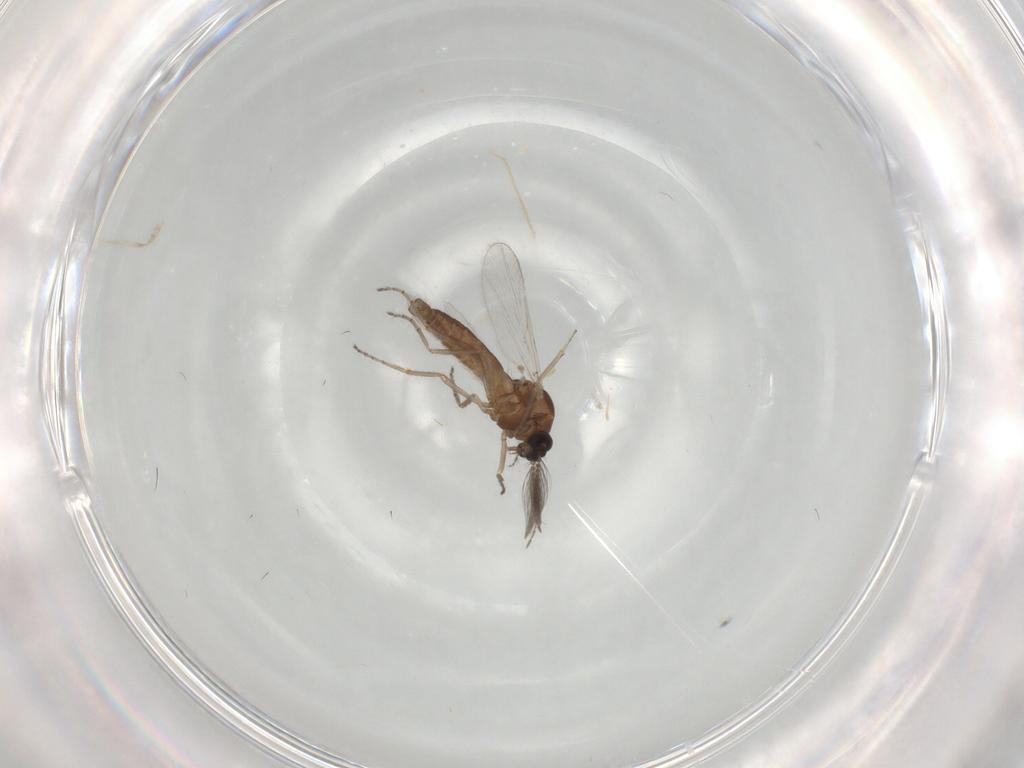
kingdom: Animalia
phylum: Arthropoda
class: Insecta
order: Diptera
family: Ceratopogonidae
